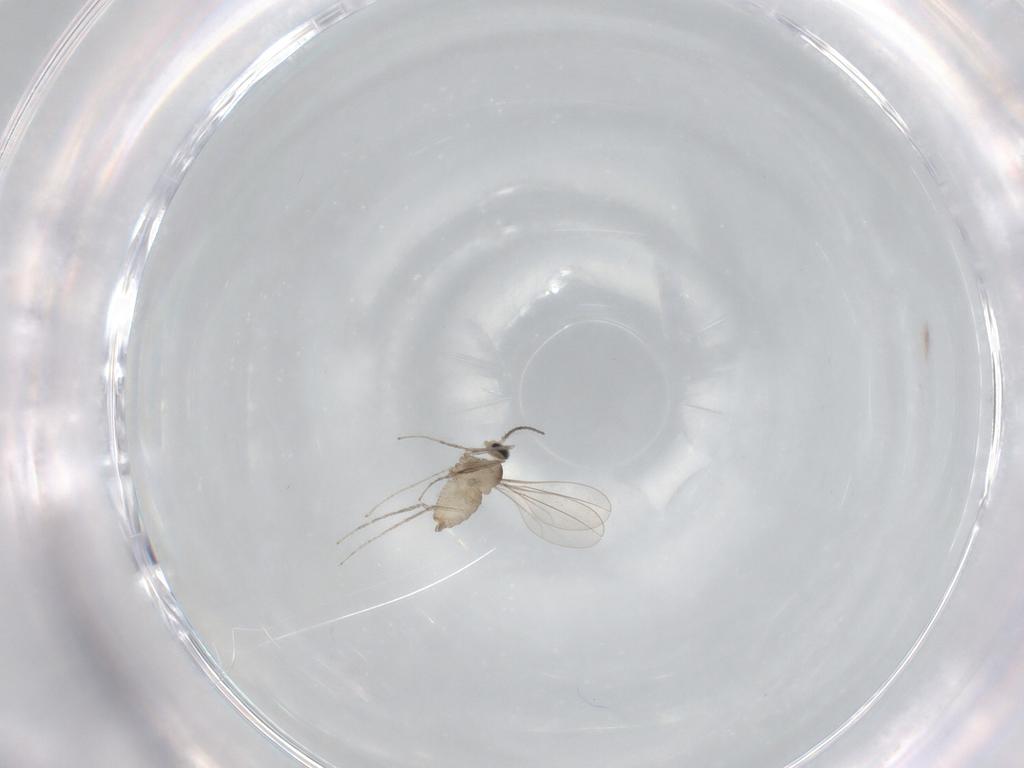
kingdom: Animalia
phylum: Arthropoda
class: Insecta
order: Diptera
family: Cecidomyiidae
